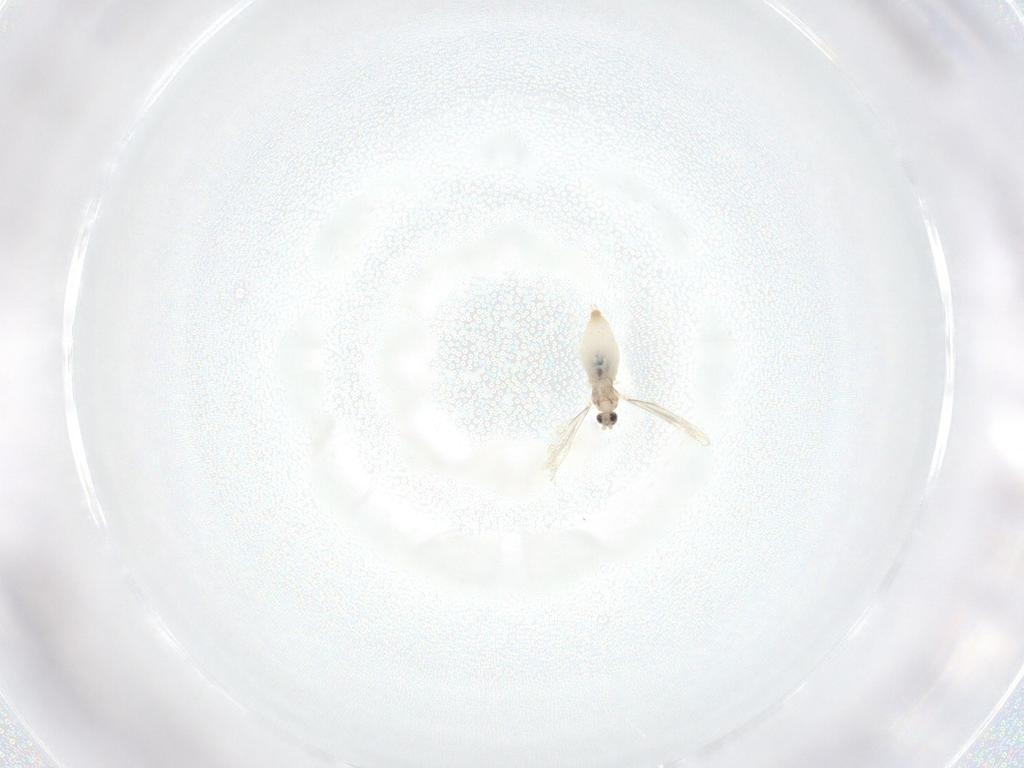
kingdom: Animalia
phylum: Arthropoda
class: Insecta
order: Diptera
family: Cecidomyiidae
